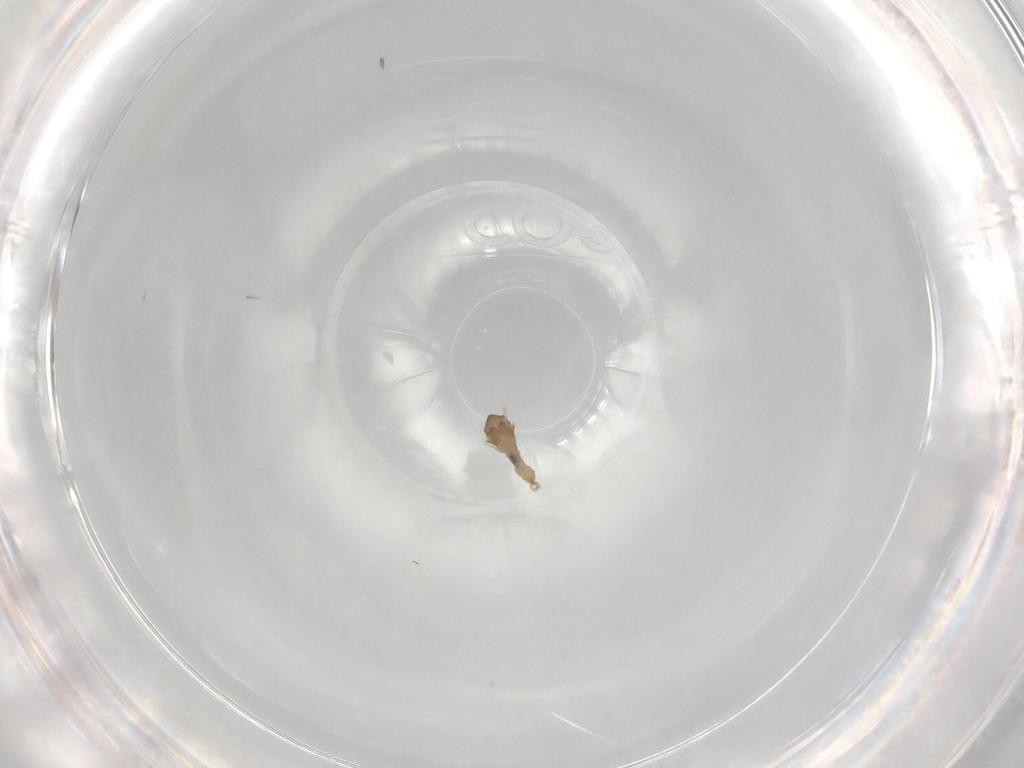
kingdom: Animalia
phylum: Arthropoda
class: Insecta
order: Diptera
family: Cecidomyiidae
